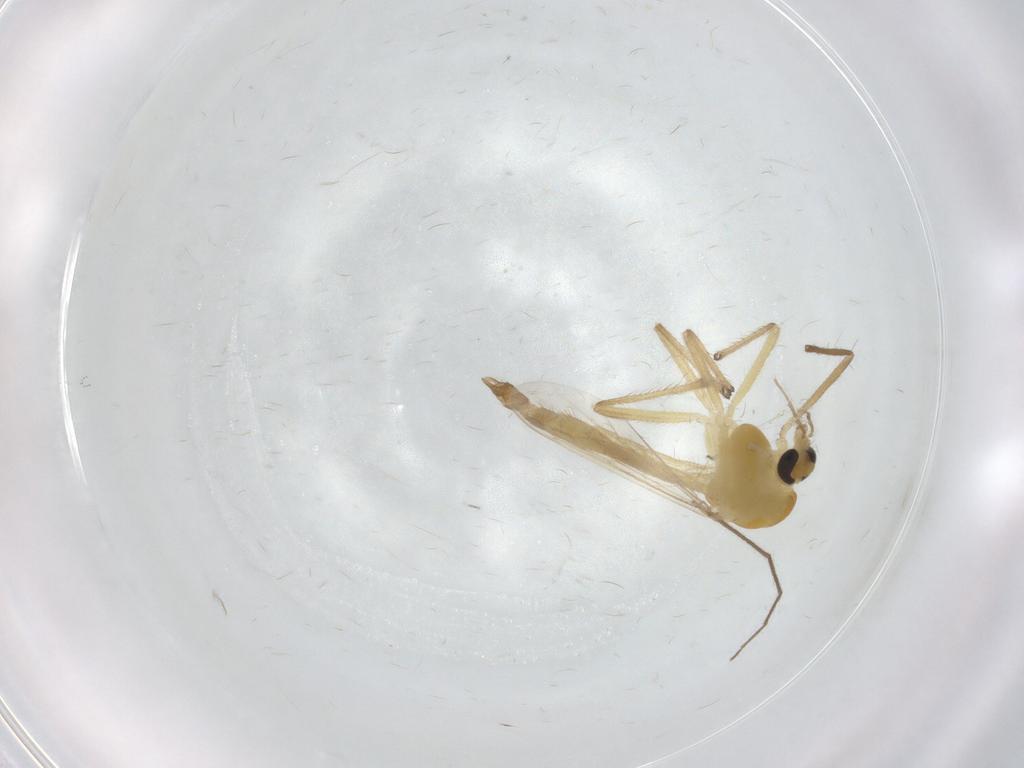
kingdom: Animalia
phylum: Arthropoda
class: Insecta
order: Diptera
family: Chironomidae
